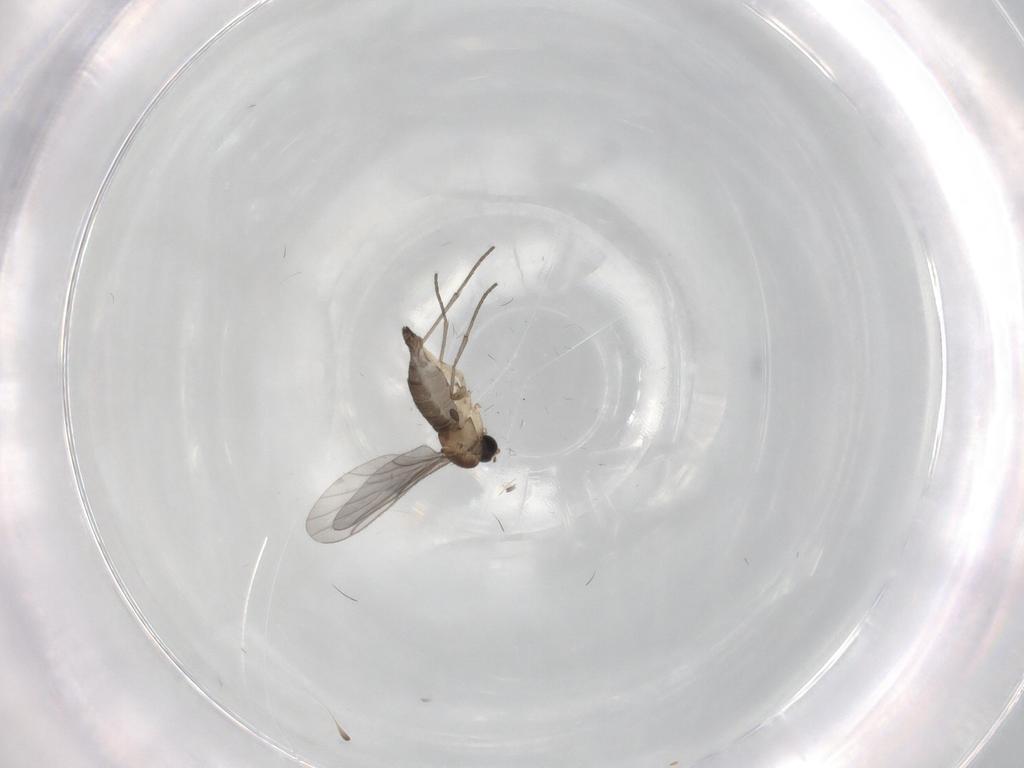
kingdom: Animalia
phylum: Arthropoda
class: Insecta
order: Diptera
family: Sciaridae
